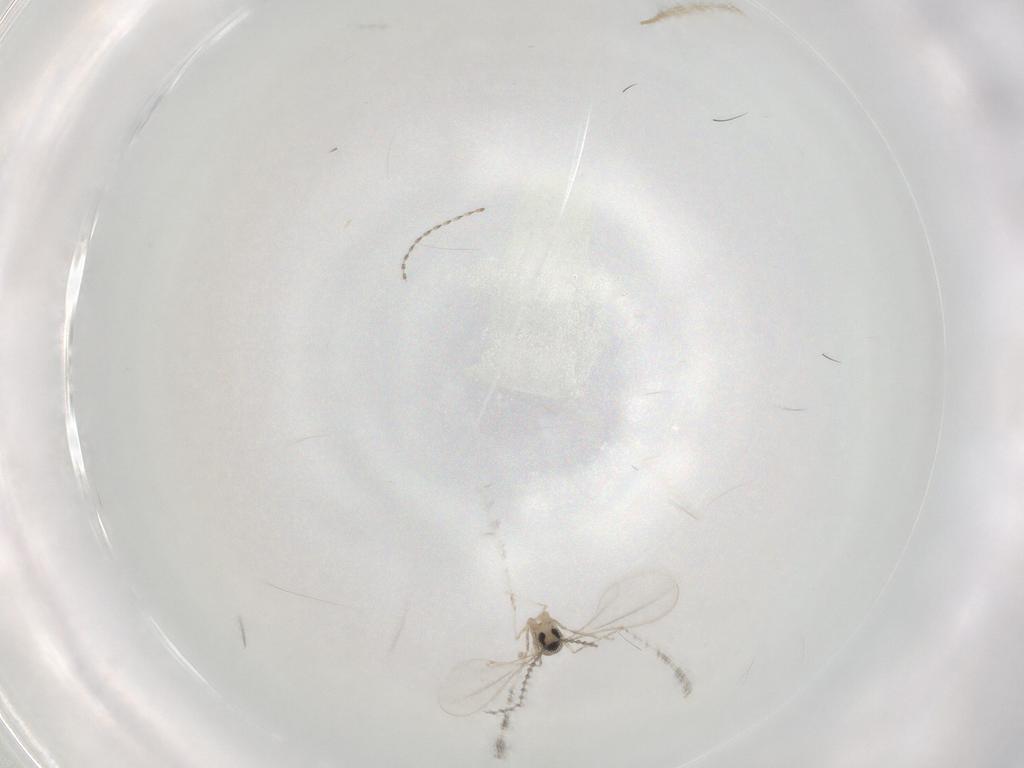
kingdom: Animalia
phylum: Arthropoda
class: Insecta
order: Diptera
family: Cecidomyiidae
